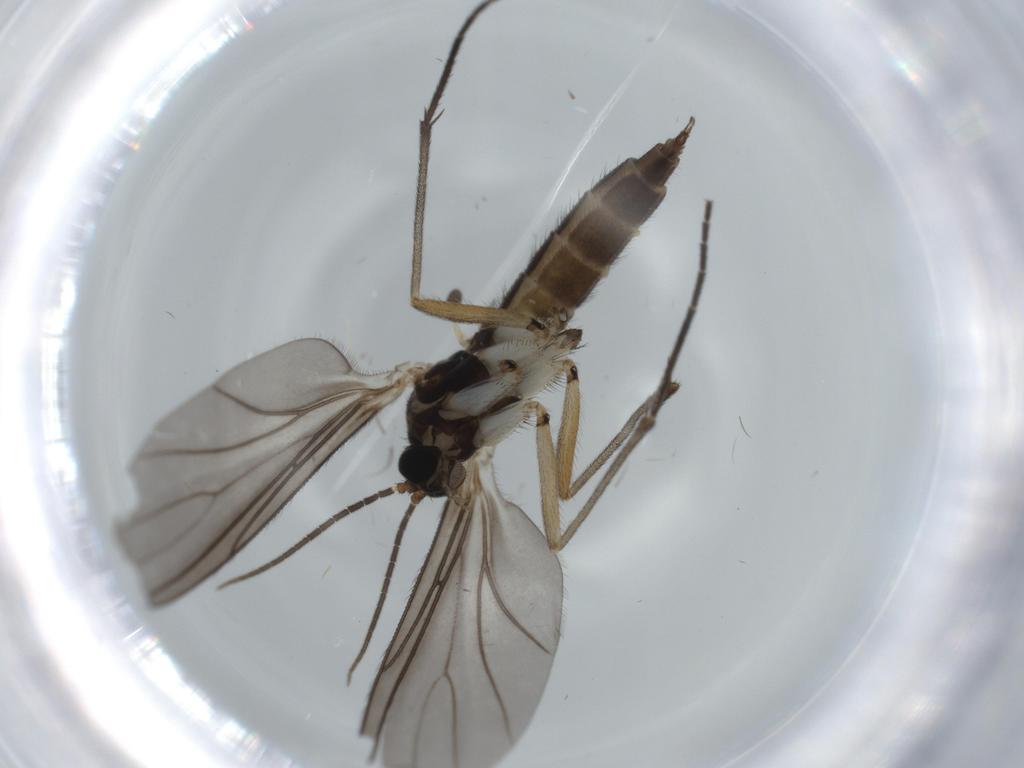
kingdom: Animalia
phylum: Arthropoda
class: Insecta
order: Diptera
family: Sciaridae
